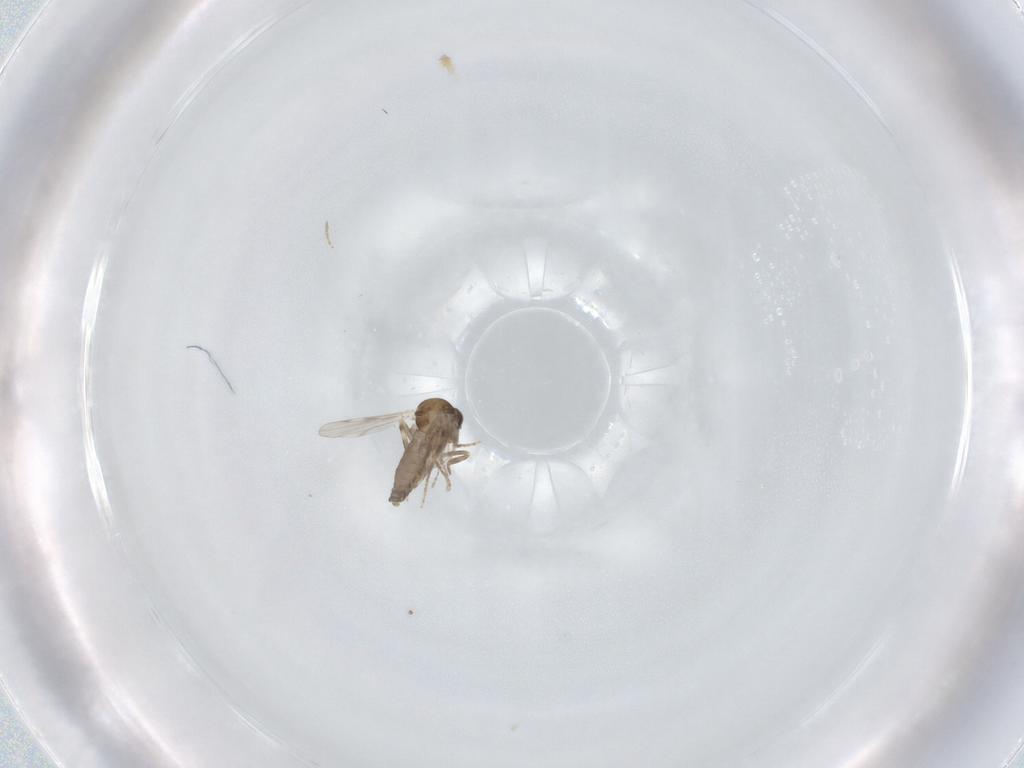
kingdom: Animalia
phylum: Arthropoda
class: Insecta
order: Diptera
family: Ceratopogonidae
